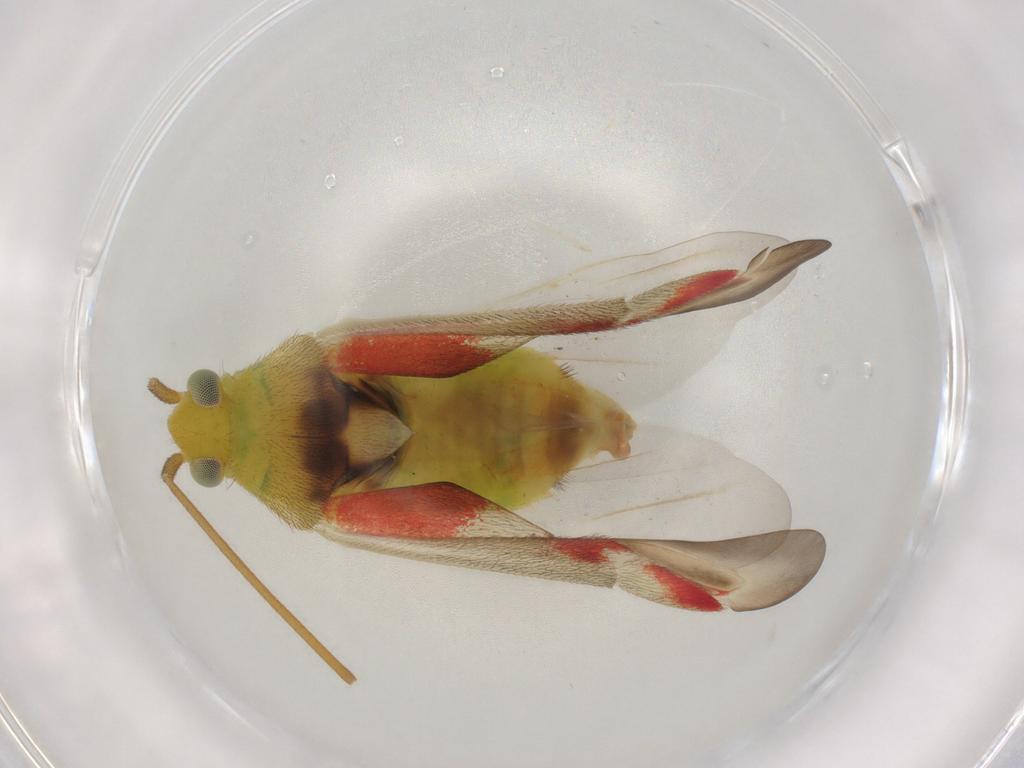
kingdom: Animalia
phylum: Arthropoda
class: Insecta
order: Hemiptera
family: Miridae
